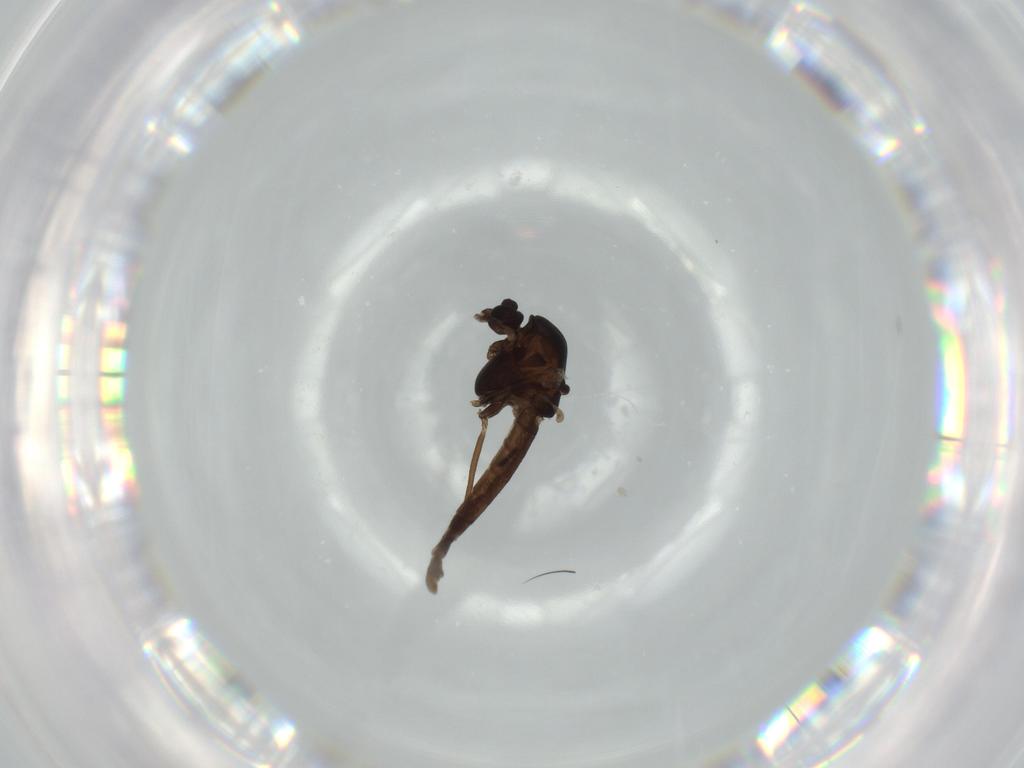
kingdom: Animalia
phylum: Arthropoda
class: Insecta
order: Diptera
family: Chironomidae
